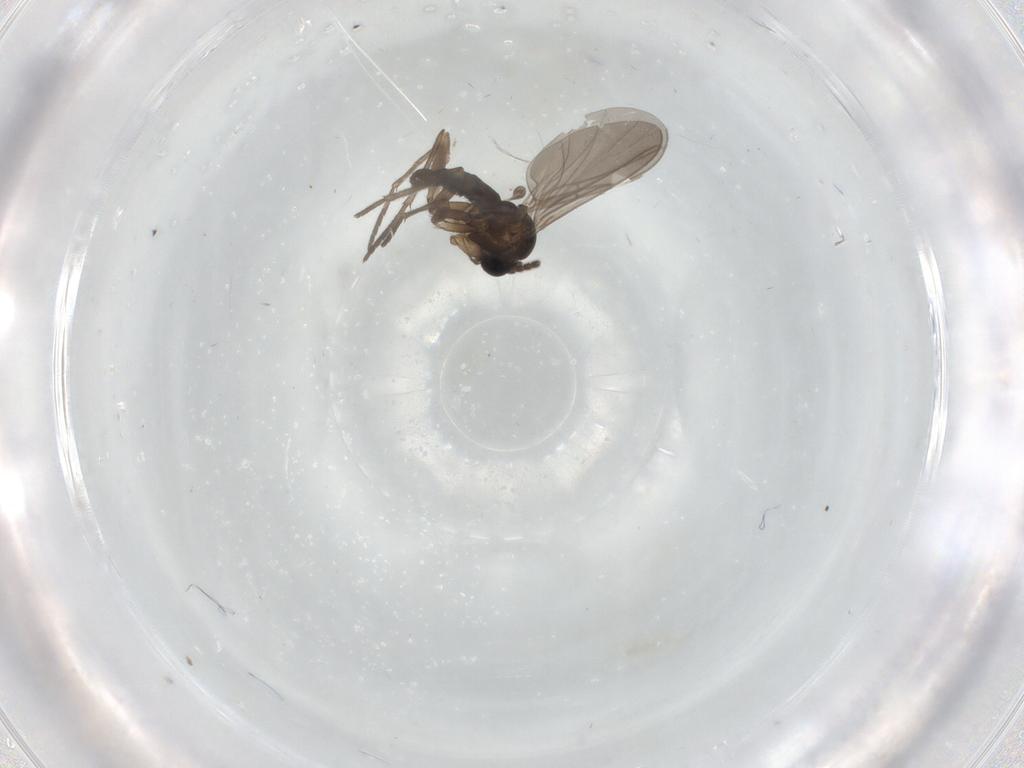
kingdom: Animalia
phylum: Arthropoda
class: Insecta
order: Diptera
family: Sciaridae
